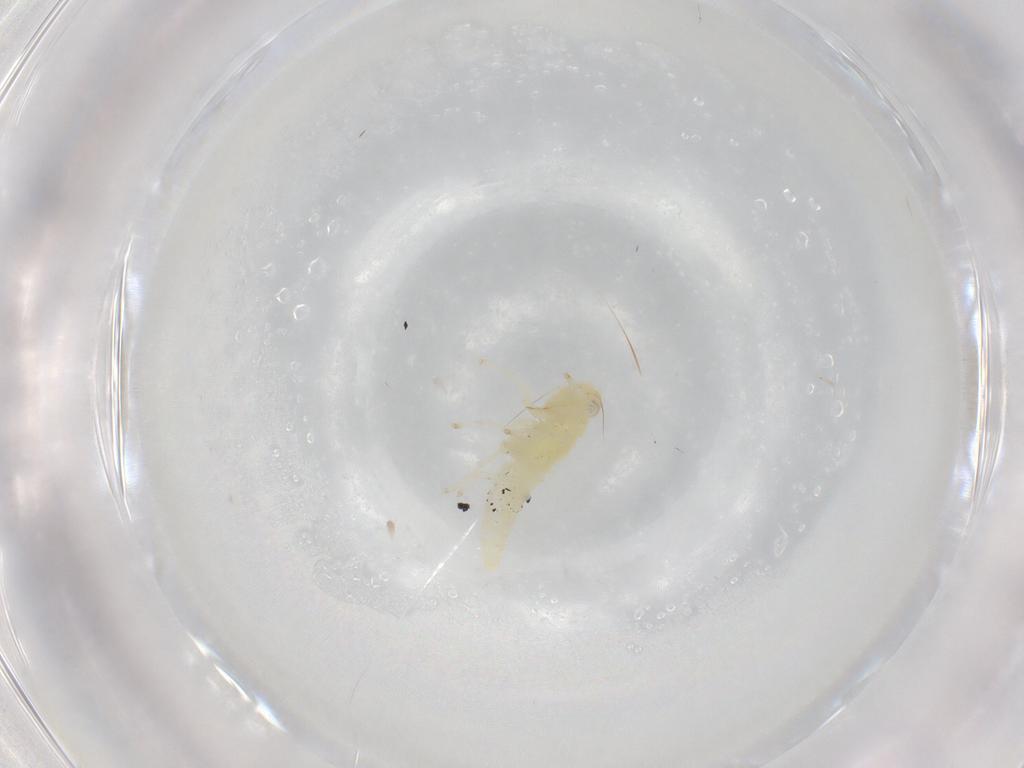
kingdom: Animalia
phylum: Arthropoda
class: Insecta
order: Hemiptera
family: Cicadellidae
